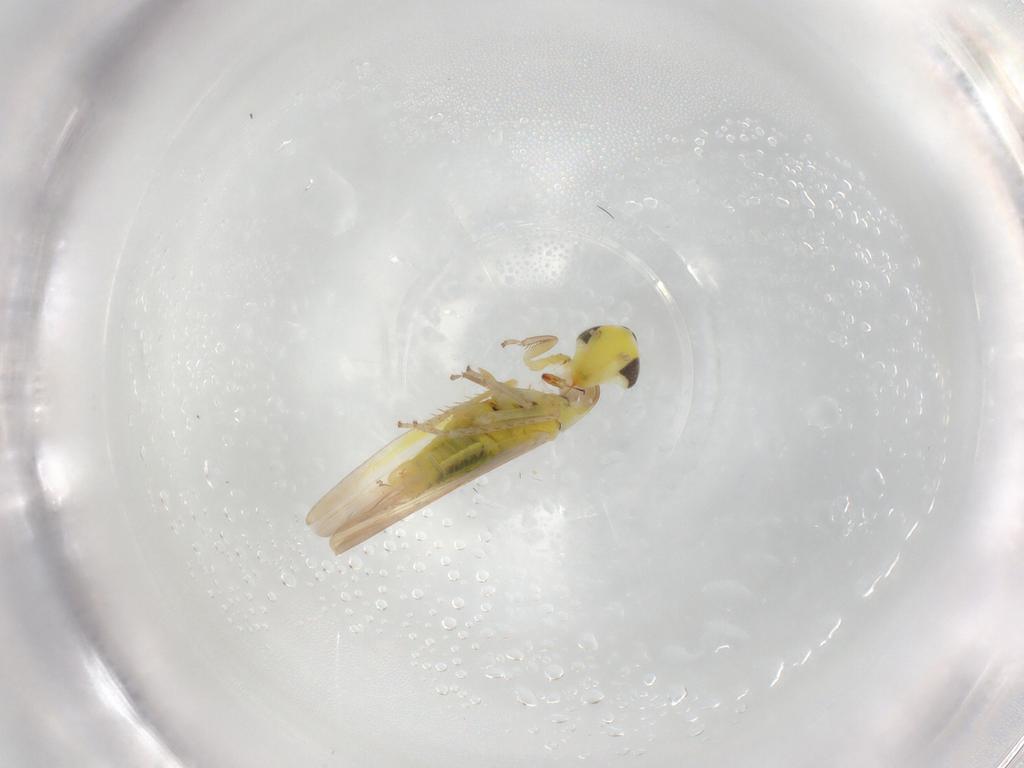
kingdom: Animalia
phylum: Arthropoda
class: Insecta
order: Hemiptera
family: Cicadellidae
